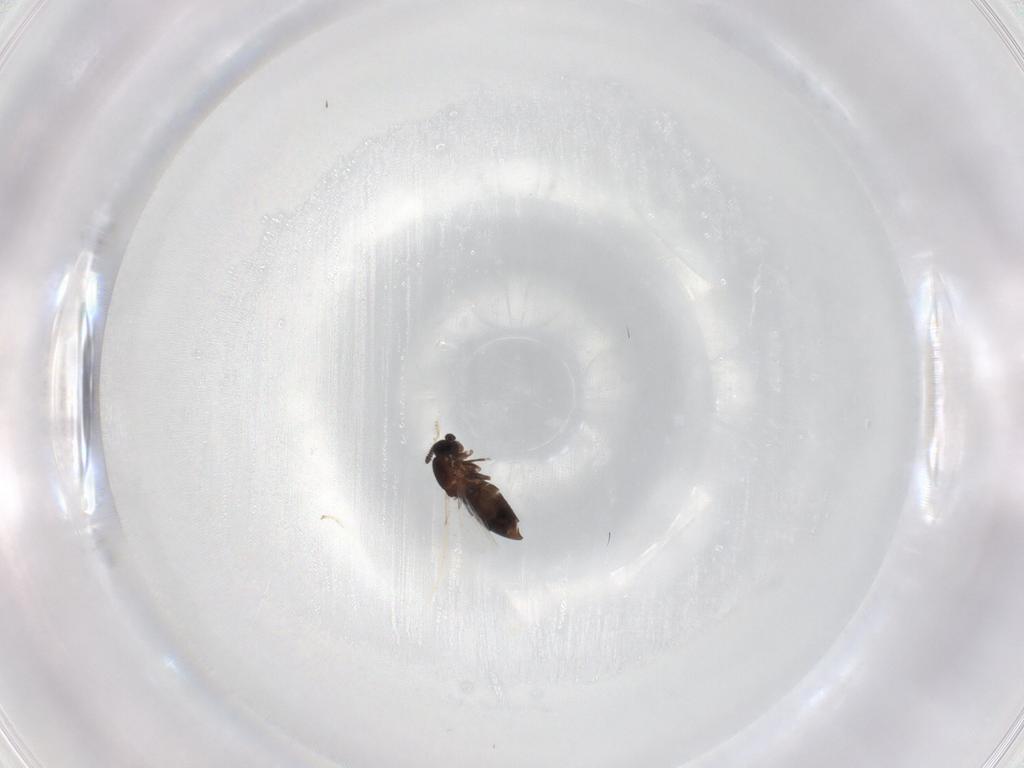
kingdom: Animalia
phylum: Arthropoda
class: Insecta
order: Diptera
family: Scatopsidae
